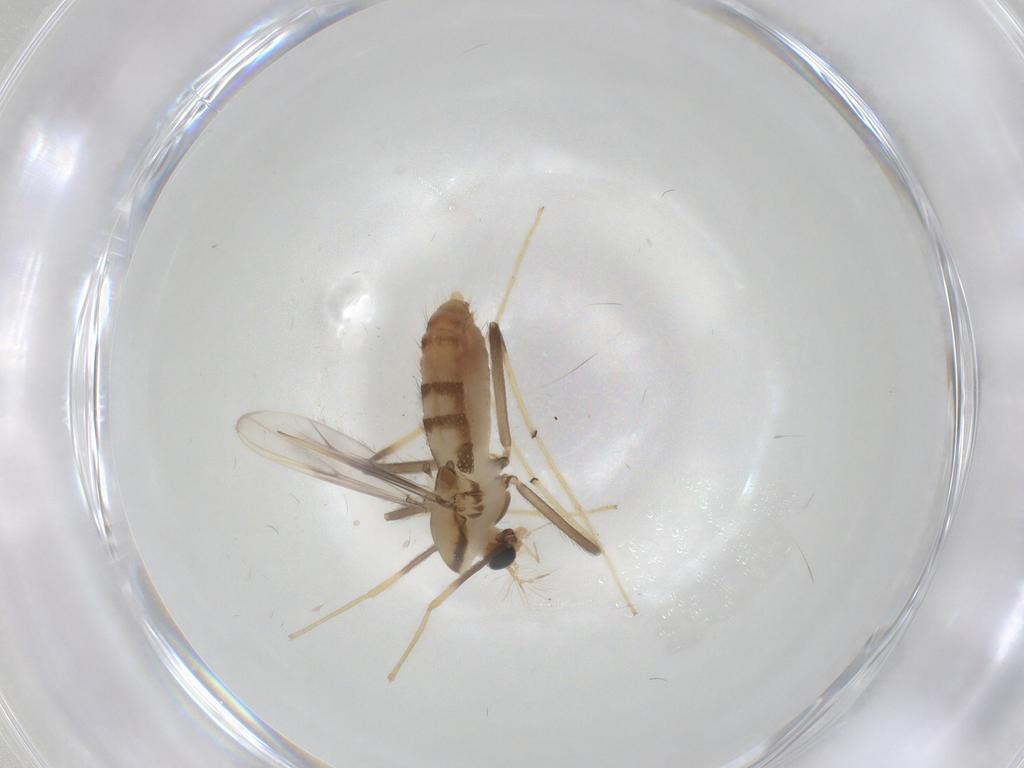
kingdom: Animalia
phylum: Arthropoda
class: Insecta
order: Diptera
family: Chironomidae
